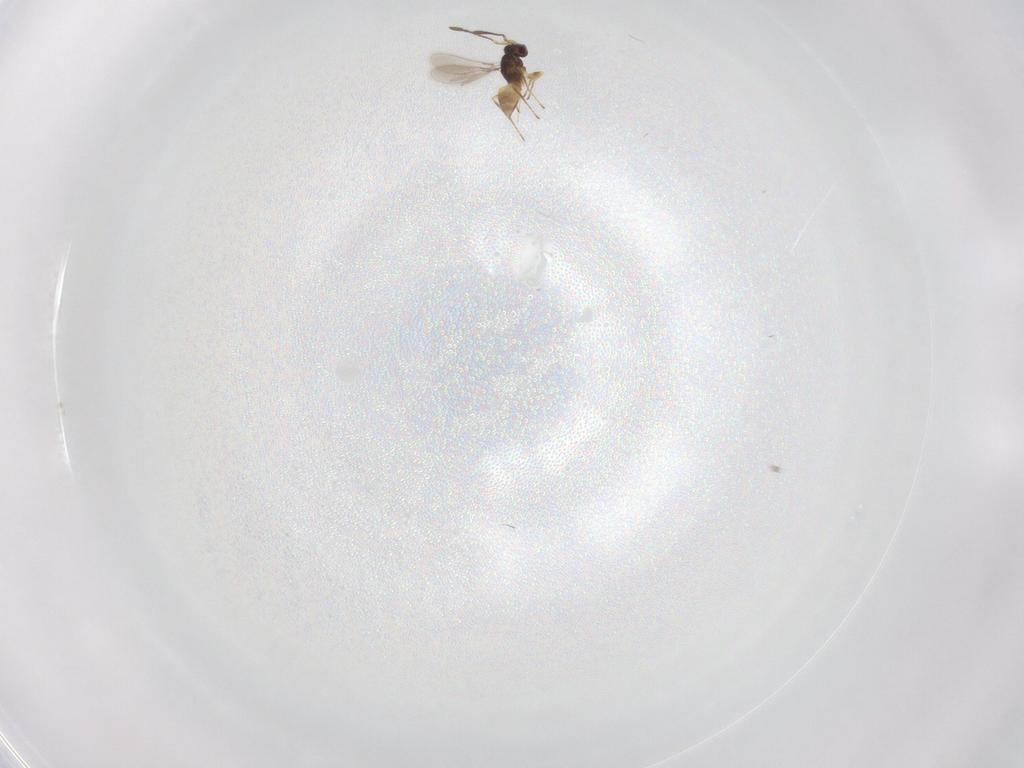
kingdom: Animalia
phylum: Arthropoda
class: Insecta
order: Hymenoptera
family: Mymaridae
